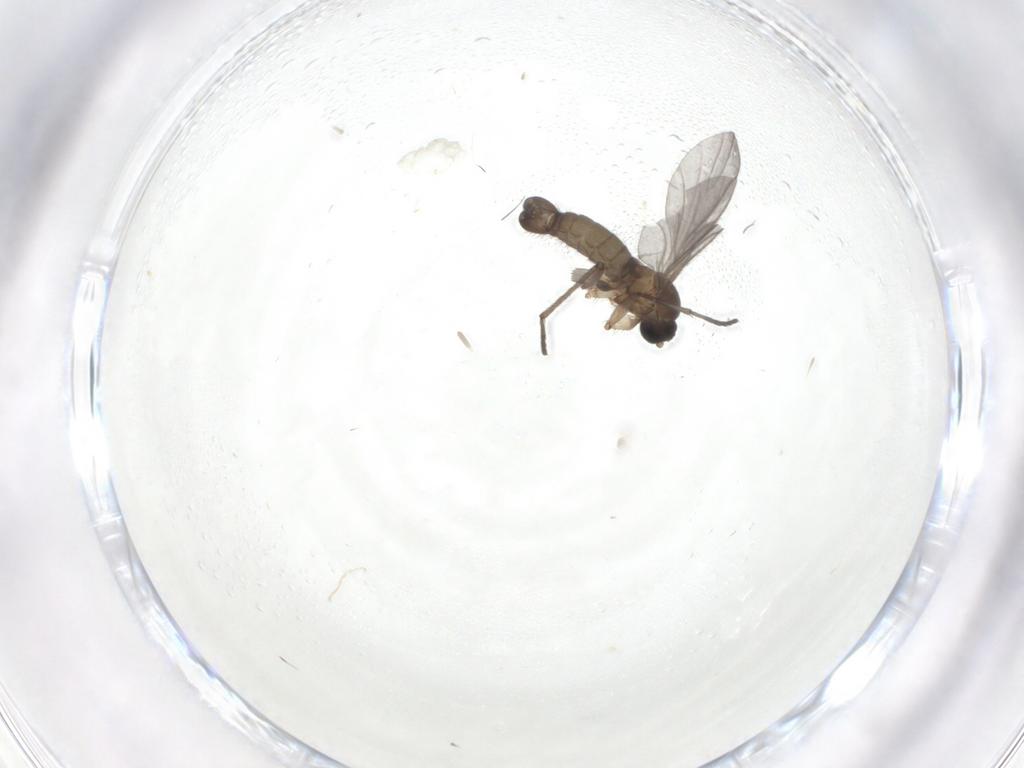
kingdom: Animalia
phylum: Arthropoda
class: Insecta
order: Diptera
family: Sciaridae
